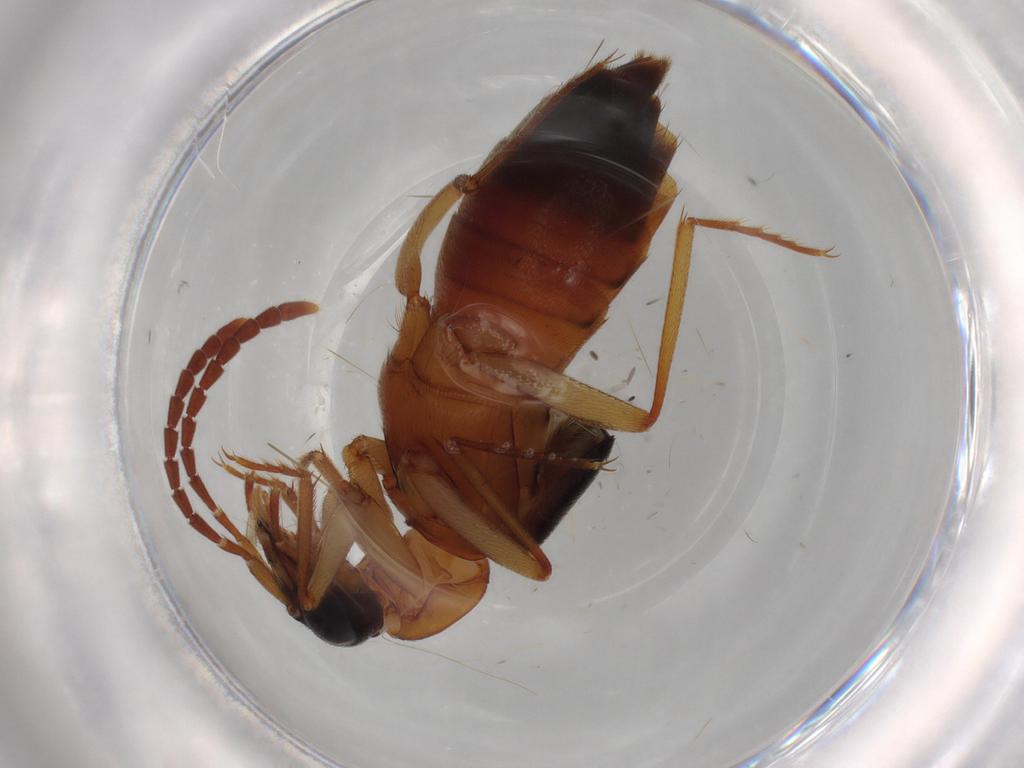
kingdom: Animalia
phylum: Arthropoda
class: Insecta
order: Coleoptera
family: Staphylinidae
